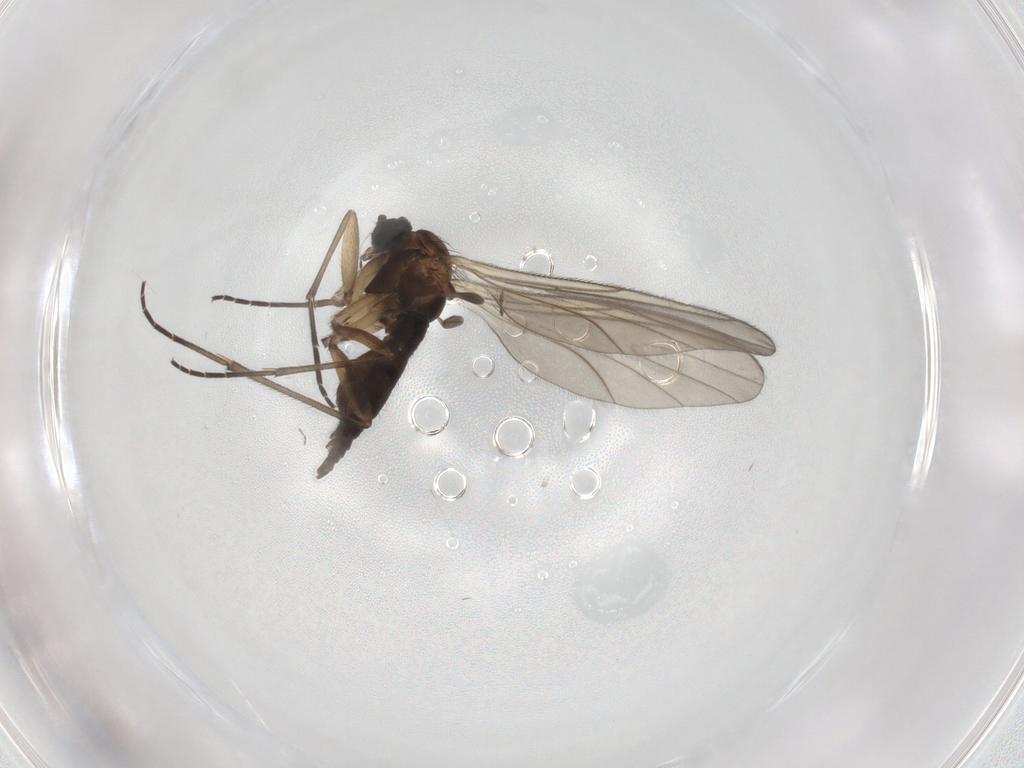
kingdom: Animalia
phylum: Arthropoda
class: Insecta
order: Diptera
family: Sciaridae
